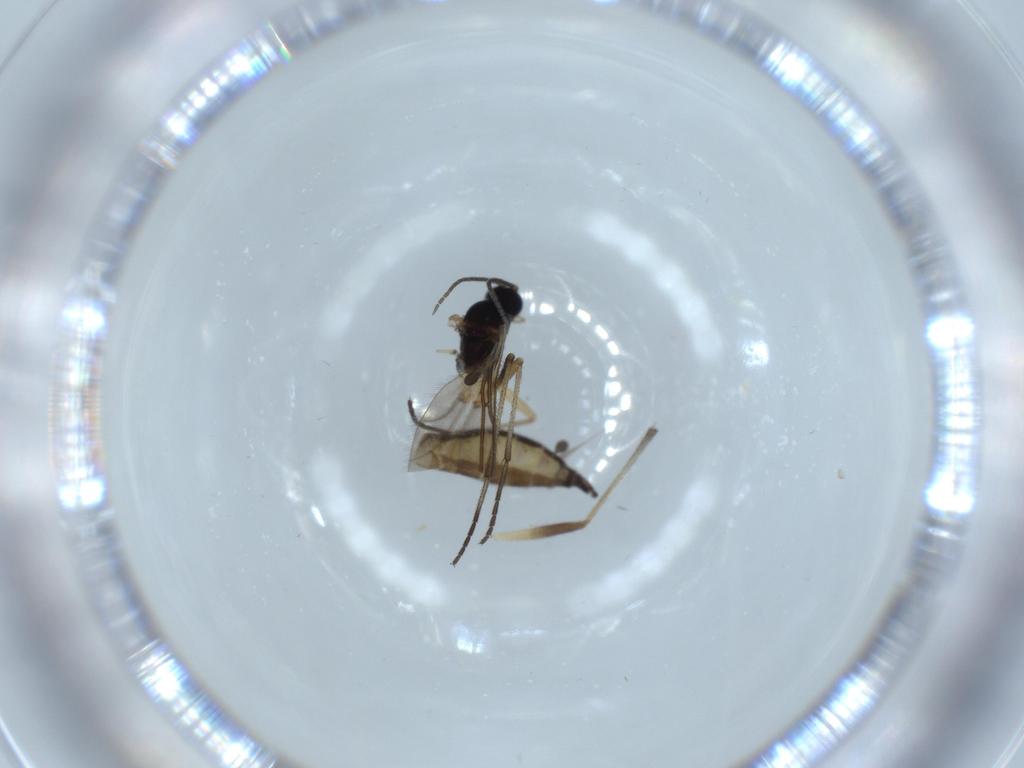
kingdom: Animalia
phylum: Arthropoda
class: Insecta
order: Diptera
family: Sciaridae
